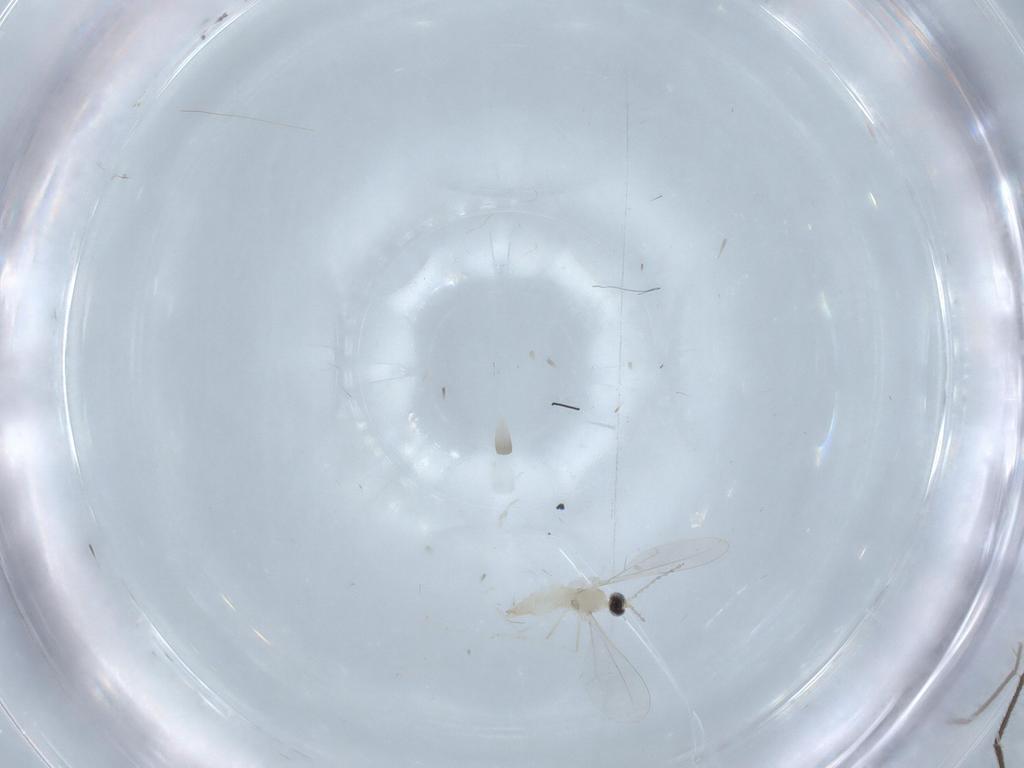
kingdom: Animalia
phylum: Arthropoda
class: Insecta
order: Diptera
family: Cecidomyiidae
